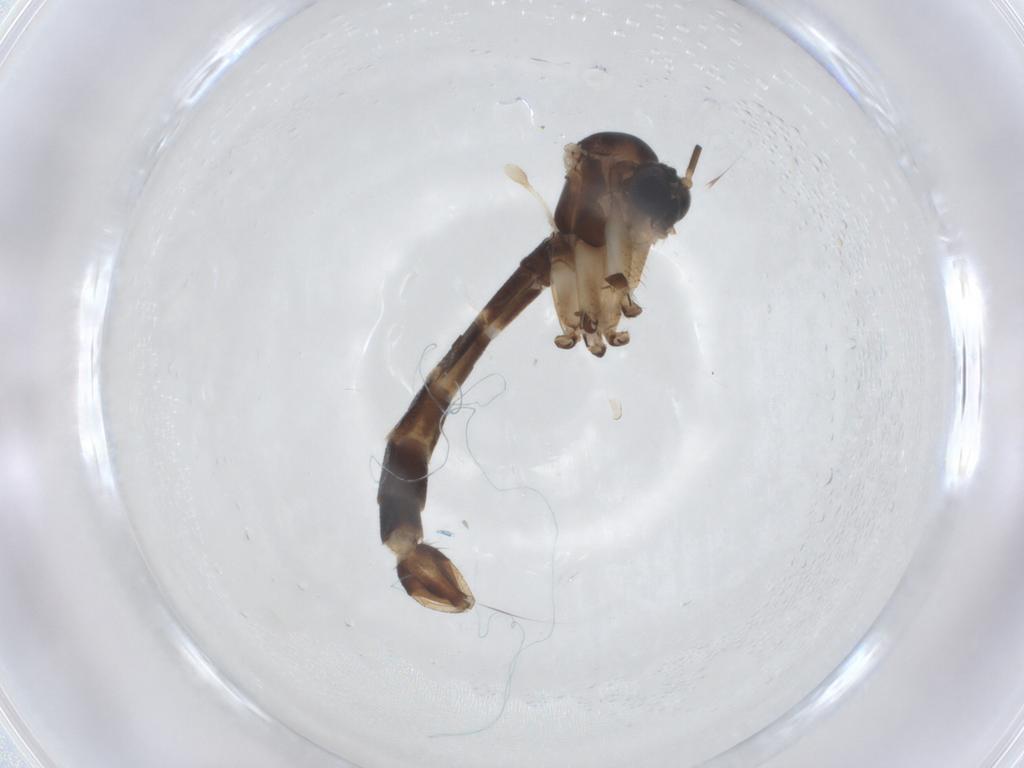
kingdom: Animalia
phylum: Arthropoda
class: Insecta
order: Diptera
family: Mycetophilidae
